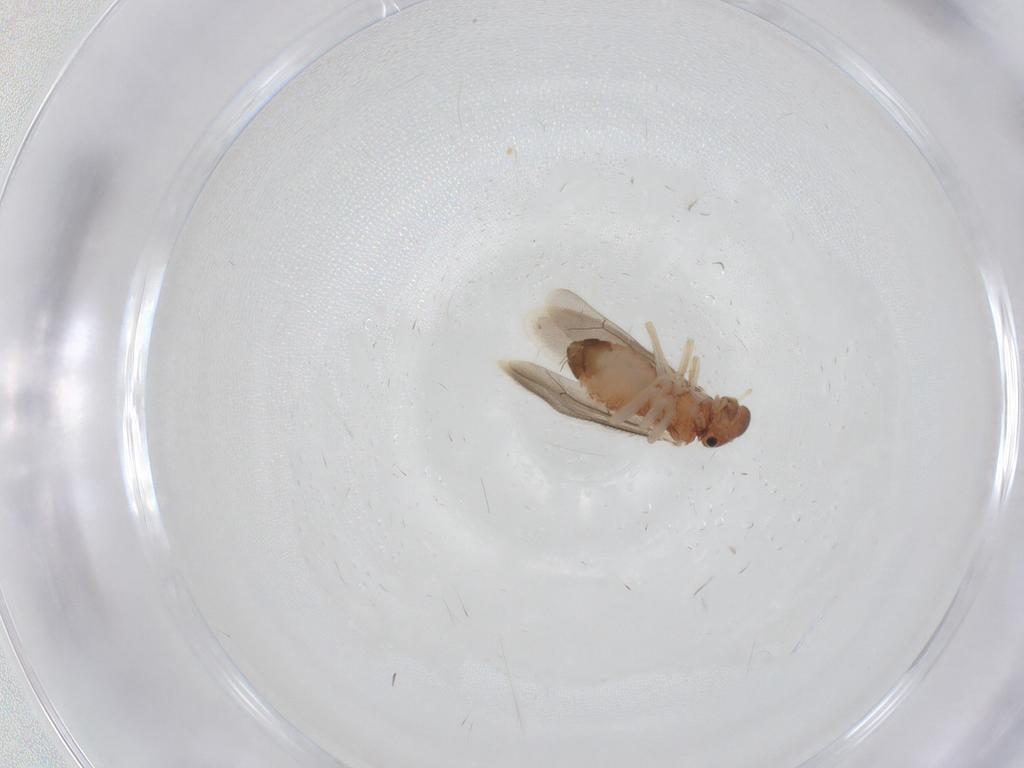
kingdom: Animalia
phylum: Arthropoda
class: Insecta
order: Psocodea
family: Archipsocidae
